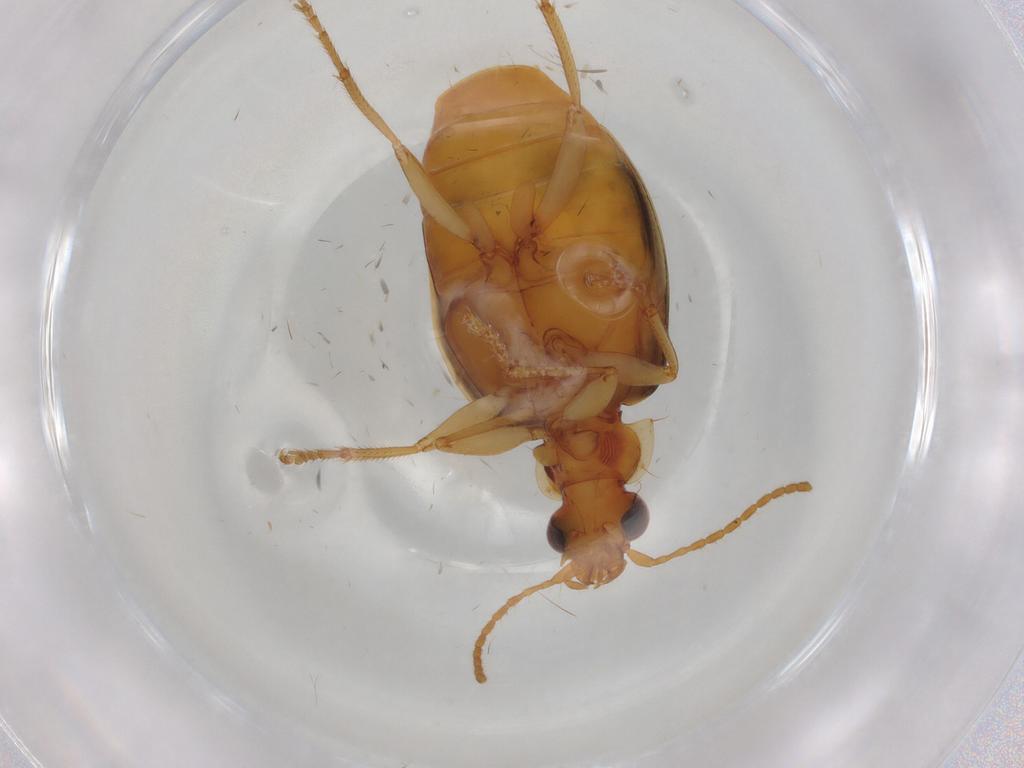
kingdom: Animalia
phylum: Arthropoda
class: Insecta
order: Coleoptera
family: Carabidae
